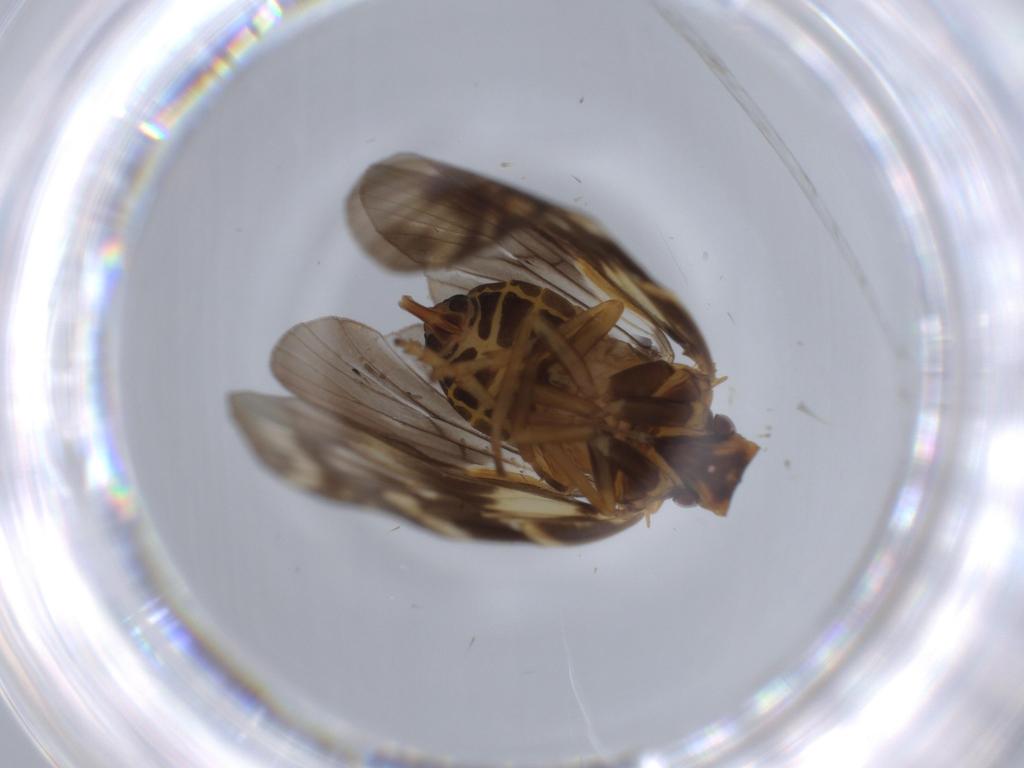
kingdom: Animalia
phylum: Arthropoda
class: Insecta
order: Hemiptera
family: Cixiidae
